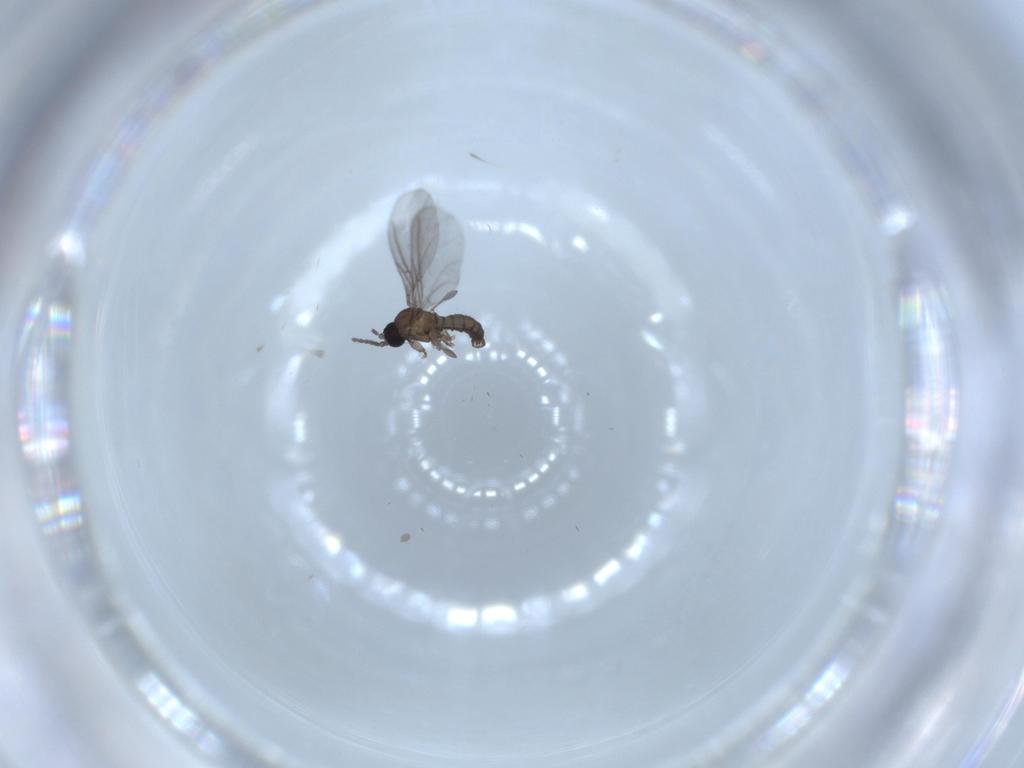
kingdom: Animalia
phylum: Arthropoda
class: Insecta
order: Diptera
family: Sciaridae
